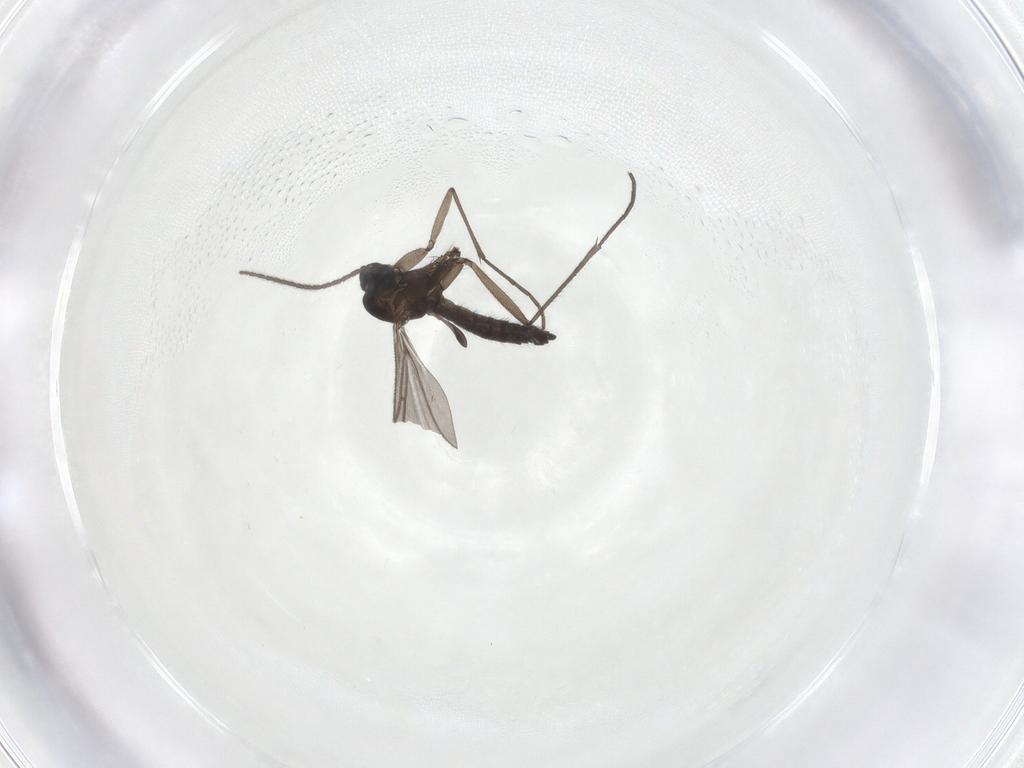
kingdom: Animalia
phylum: Arthropoda
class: Insecta
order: Diptera
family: Sciaridae
